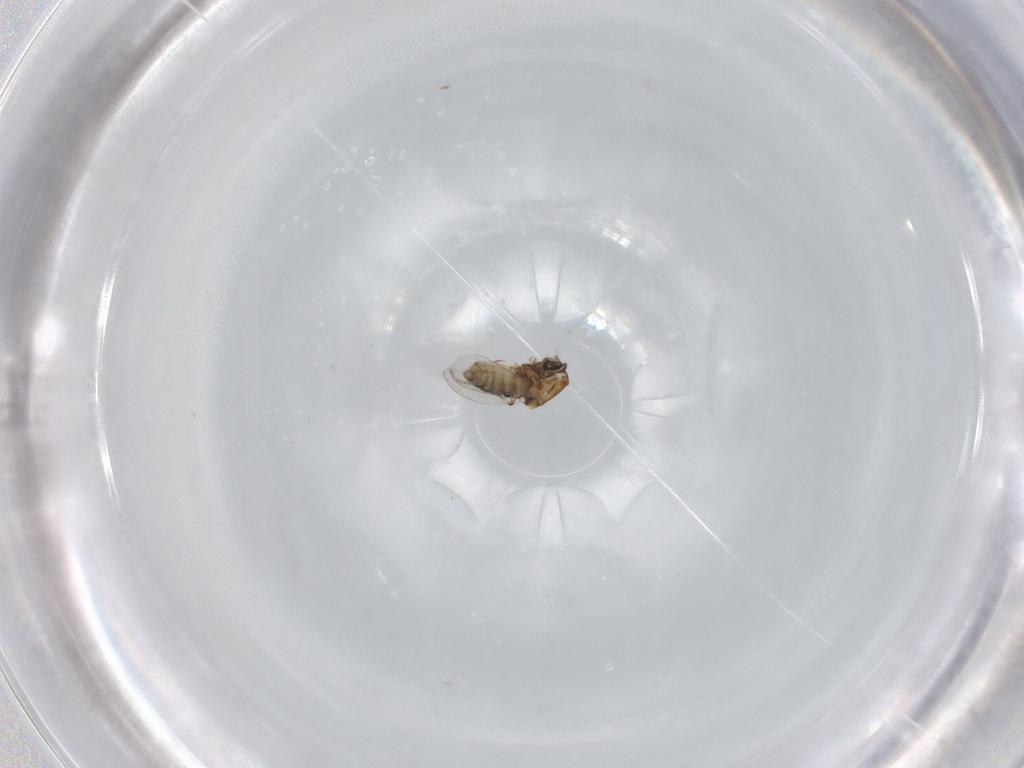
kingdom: Animalia
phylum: Arthropoda
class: Insecta
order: Diptera
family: Ceratopogonidae
